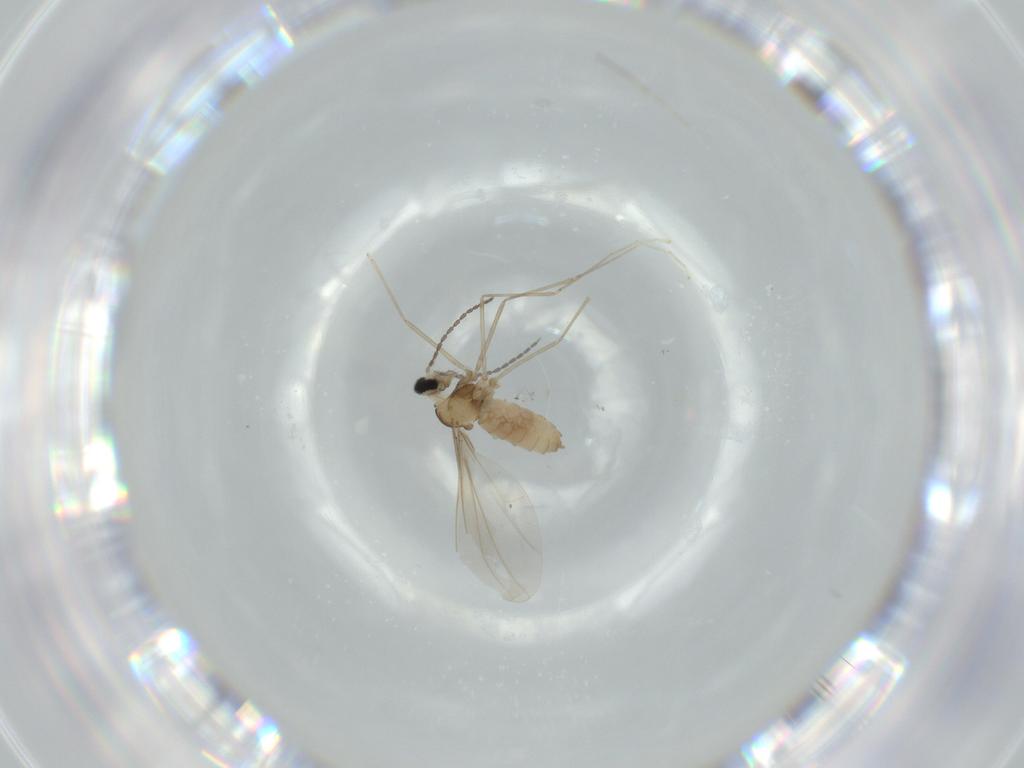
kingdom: Animalia
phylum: Arthropoda
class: Insecta
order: Diptera
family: Cecidomyiidae
